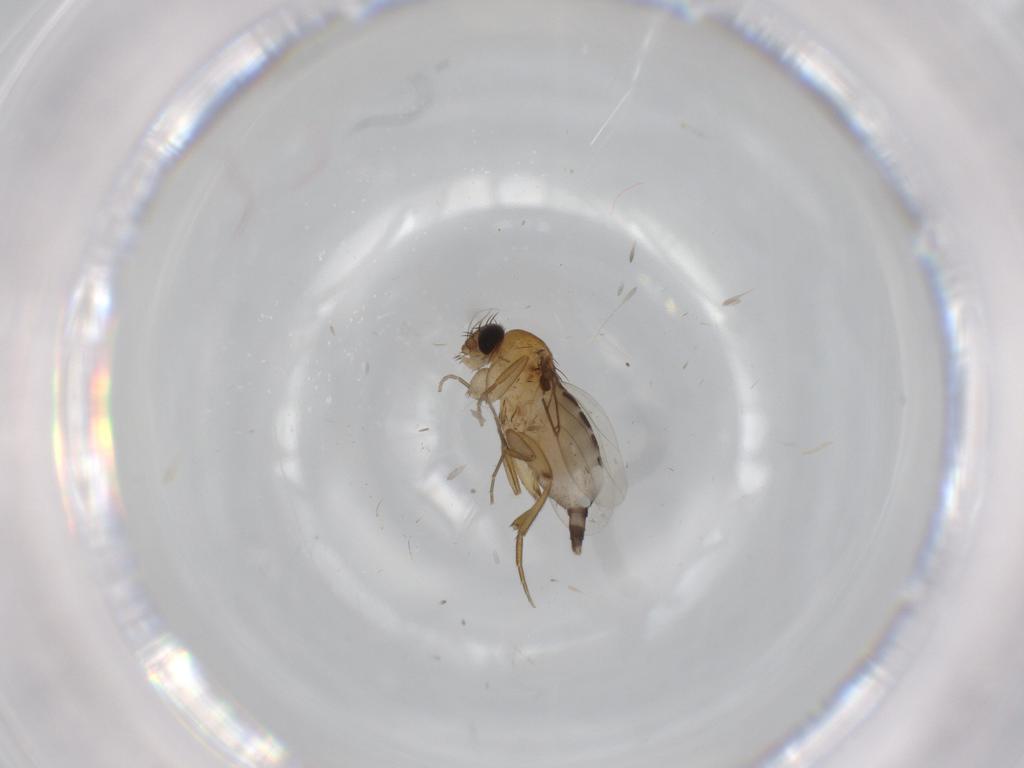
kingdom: Animalia
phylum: Arthropoda
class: Insecta
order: Diptera
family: Phoridae
